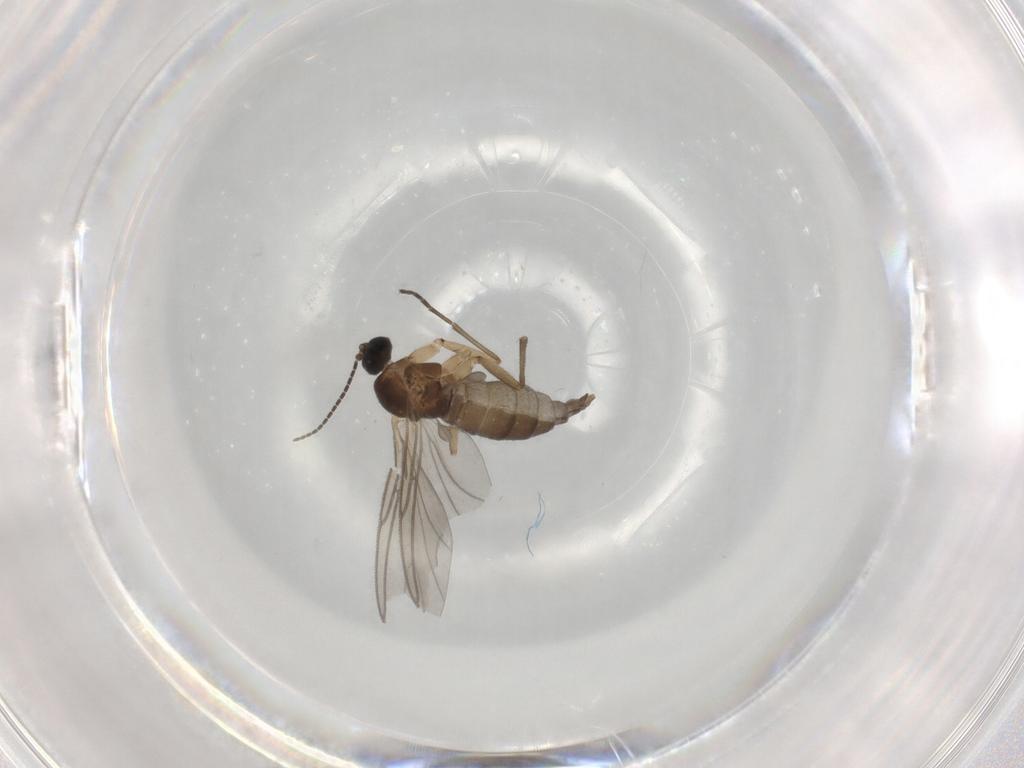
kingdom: Animalia
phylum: Arthropoda
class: Insecta
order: Diptera
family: Sciaridae
